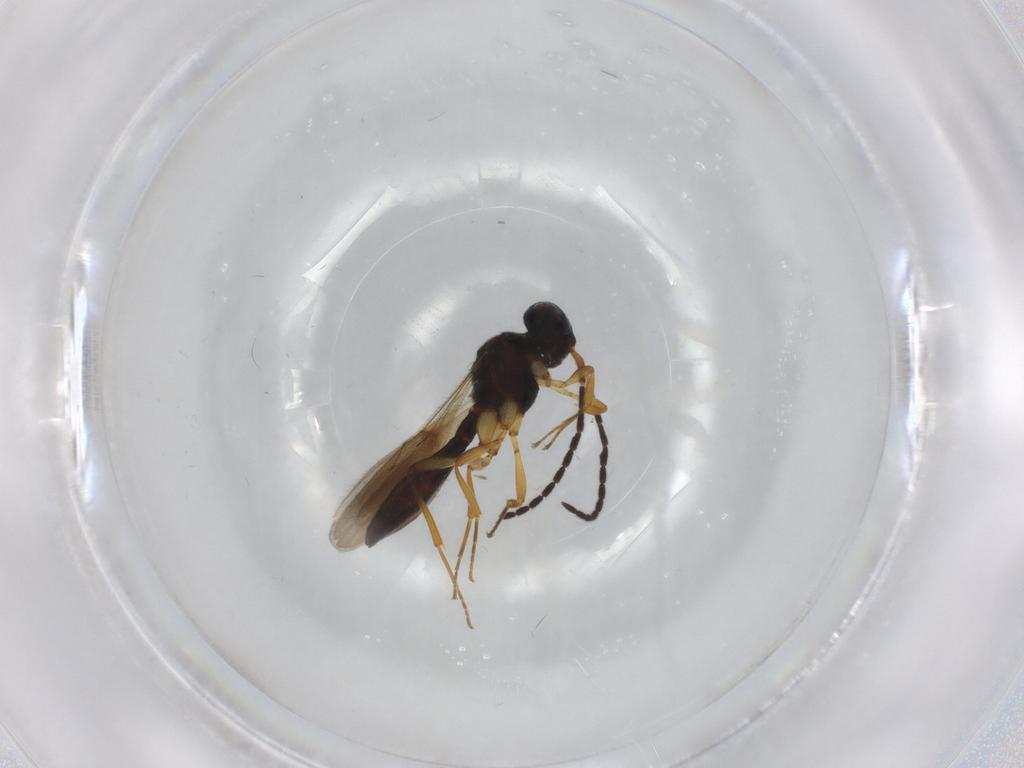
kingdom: Animalia
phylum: Arthropoda
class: Insecta
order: Hymenoptera
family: Scelionidae
